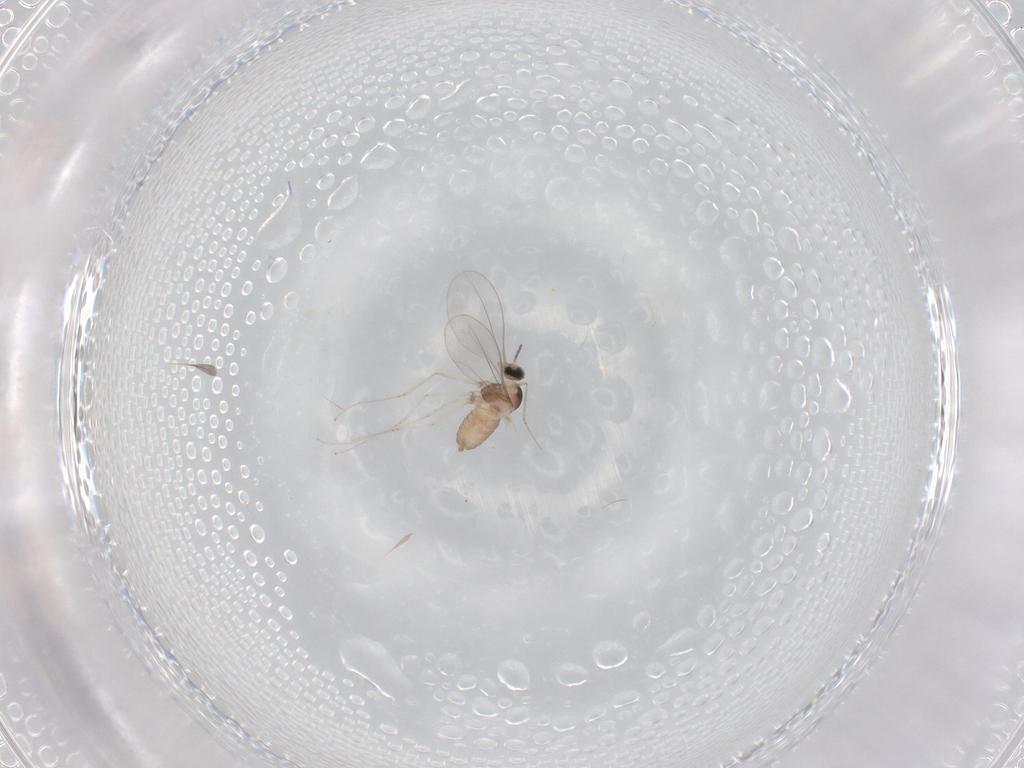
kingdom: Animalia
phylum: Arthropoda
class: Insecta
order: Diptera
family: Cecidomyiidae
